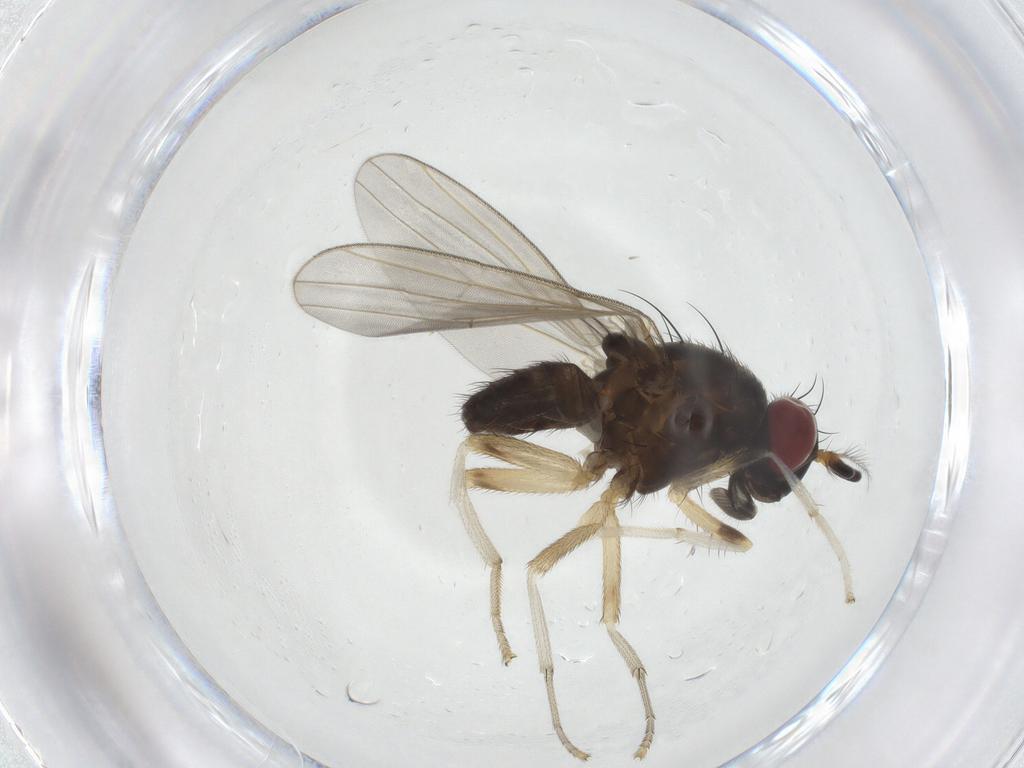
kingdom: Animalia
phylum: Arthropoda
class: Insecta
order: Diptera
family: Lauxaniidae
